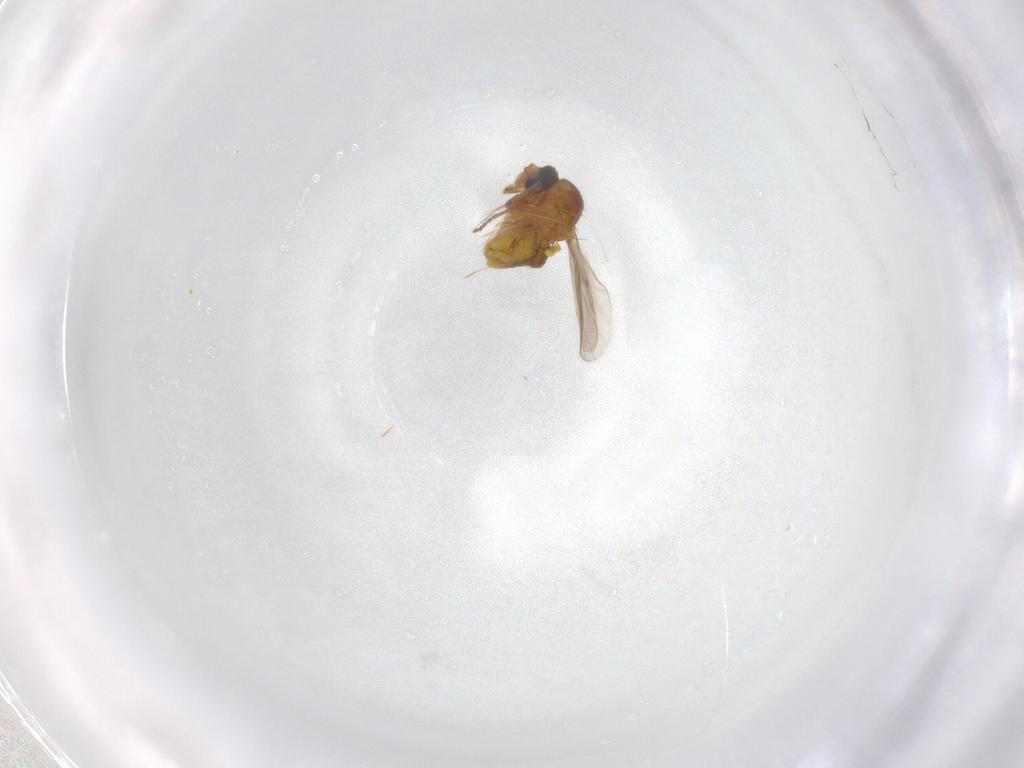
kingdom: Animalia
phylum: Arthropoda
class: Insecta
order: Diptera
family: Ceratopogonidae
